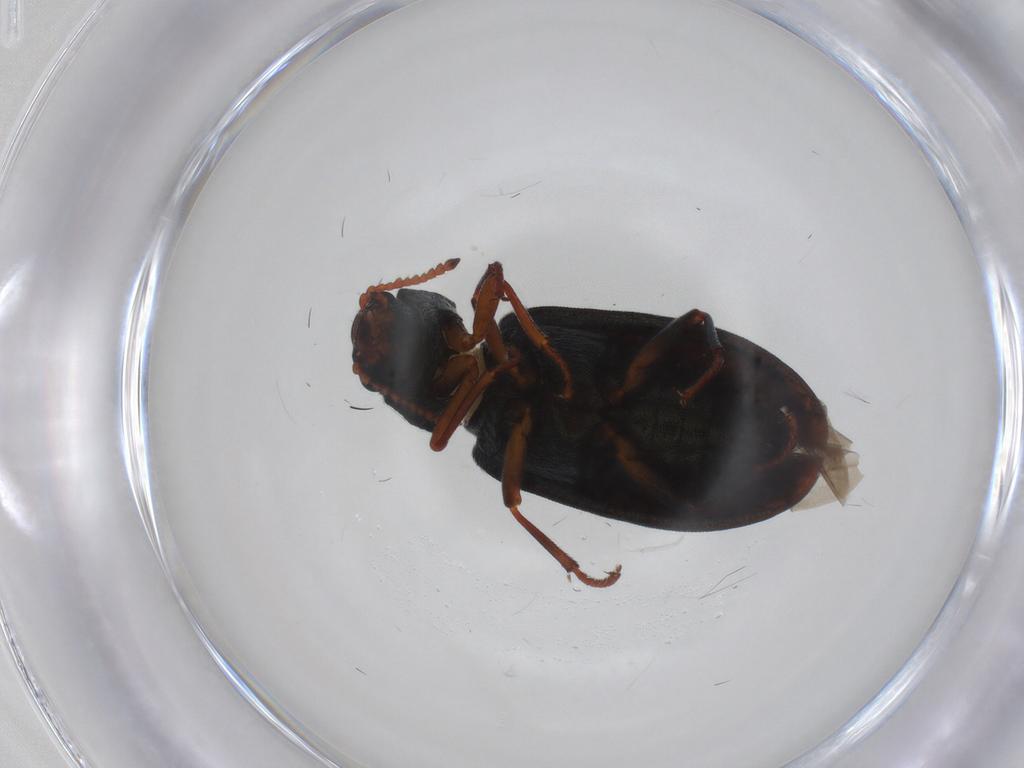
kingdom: Animalia
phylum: Arthropoda
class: Insecta
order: Coleoptera
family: Melyridae
